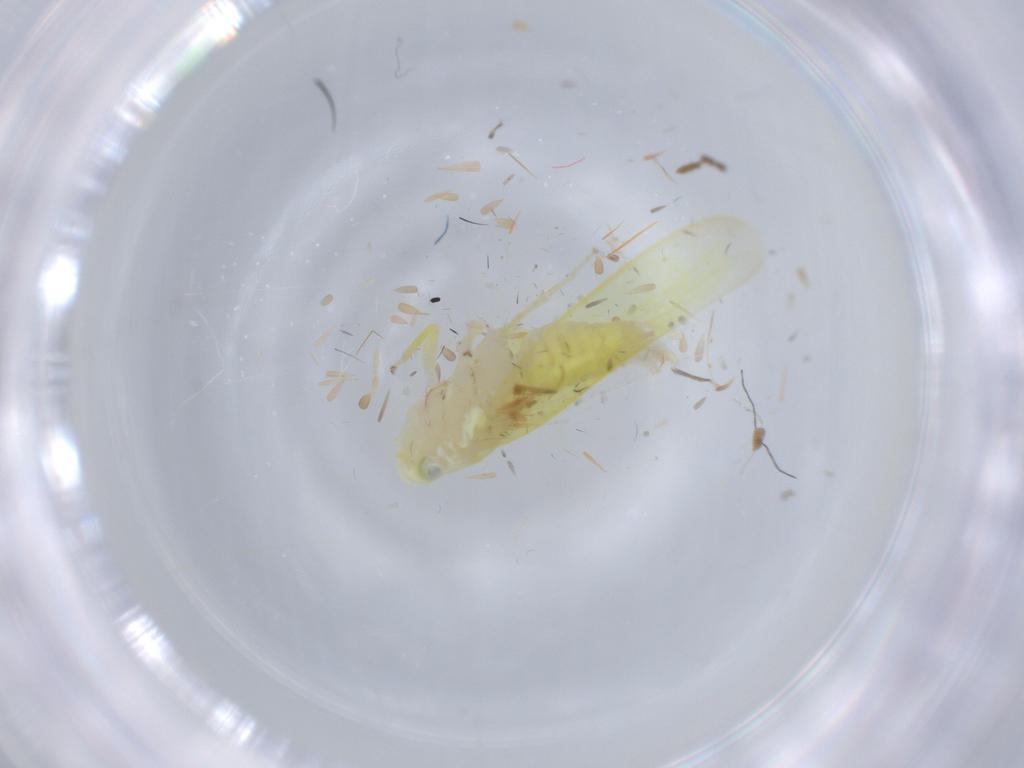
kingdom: Animalia
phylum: Arthropoda
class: Insecta
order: Hemiptera
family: Cicadellidae
